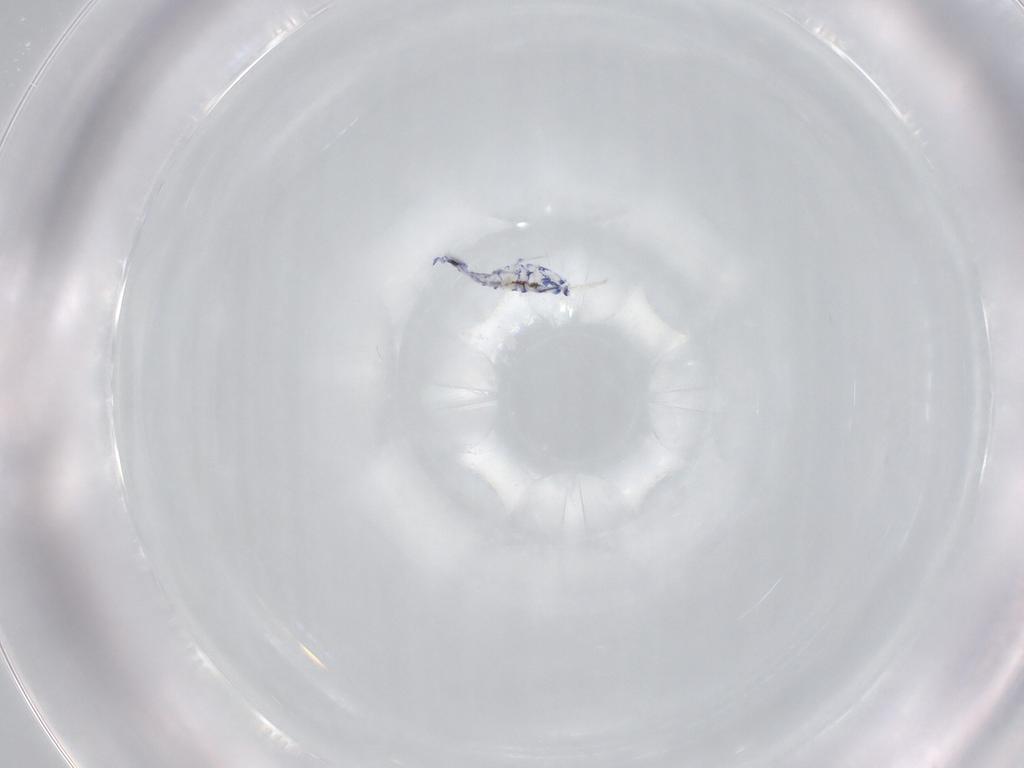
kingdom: Animalia
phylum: Arthropoda
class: Collembola
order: Entomobryomorpha
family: Entomobryidae
